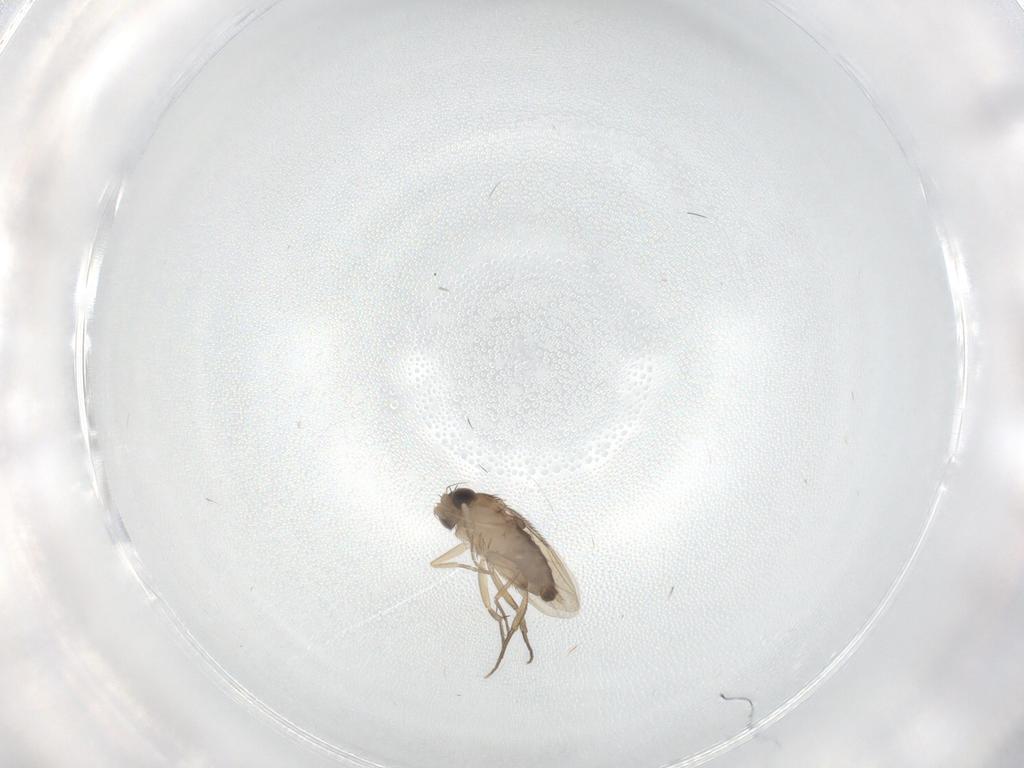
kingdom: Animalia
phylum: Arthropoda
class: Insecta
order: Diptera
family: Phoridae
